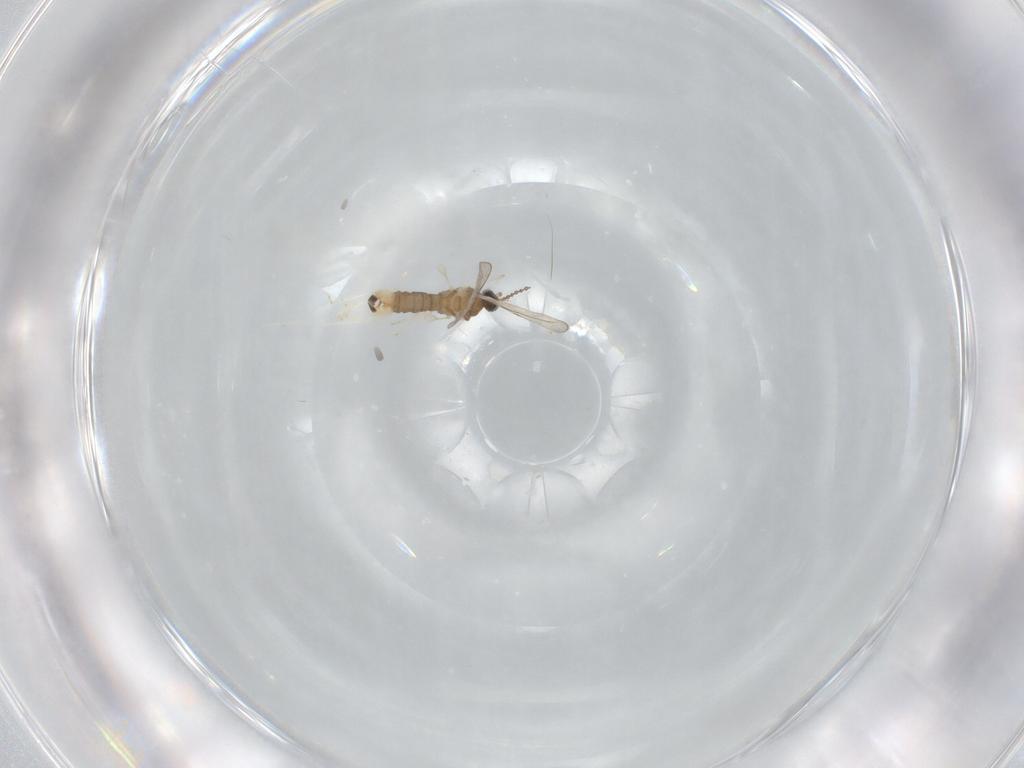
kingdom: Animalia
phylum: Arthropoda
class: Insecta
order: Diptera
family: Cecidomyiidae
